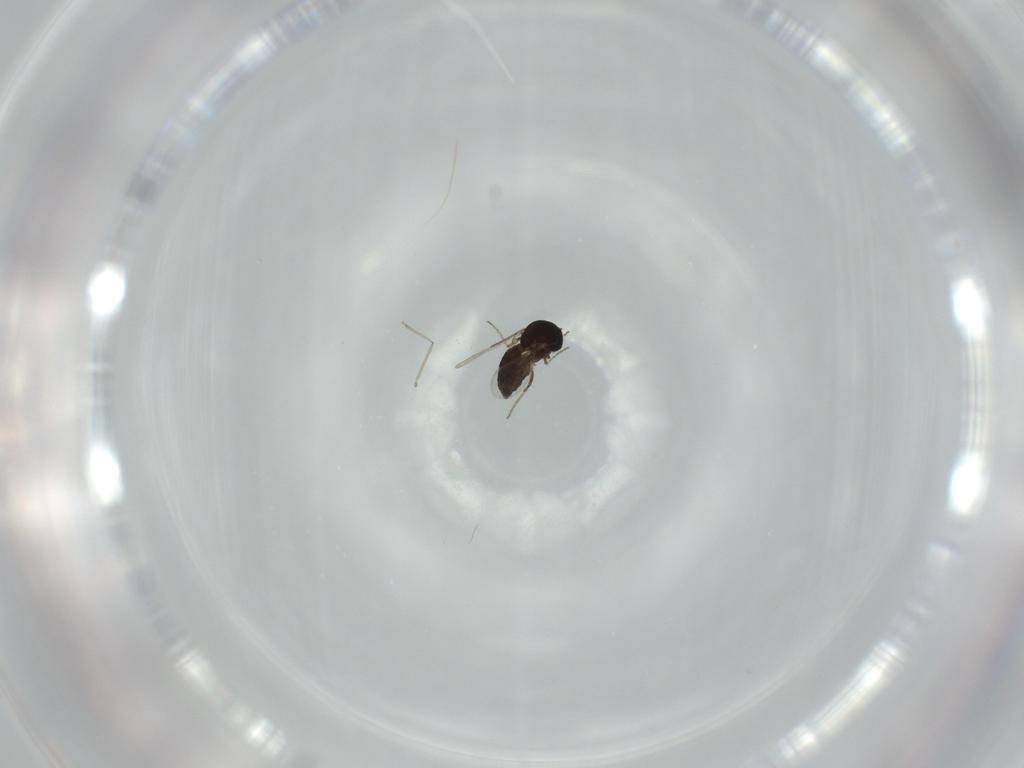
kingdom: Animalia
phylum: Arthropoda
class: Insecta
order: Diptera
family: Ceratopogonidae
